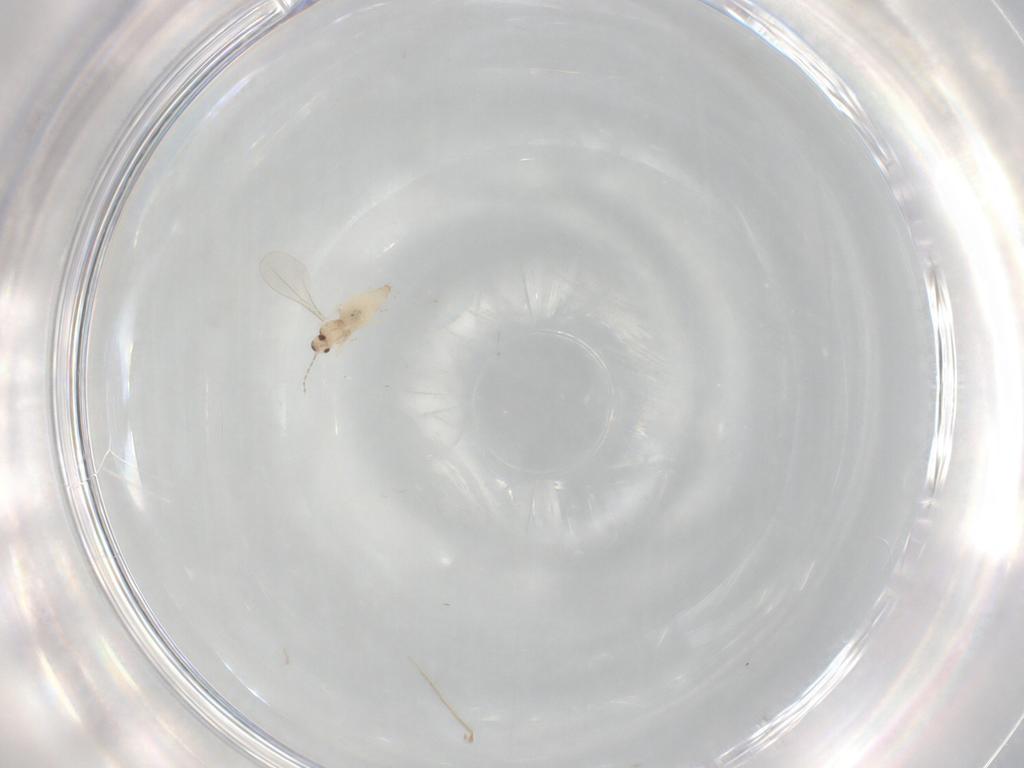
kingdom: Animalia
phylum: Arthropoda
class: Insecta
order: Diptera
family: Cecidomyiidae
